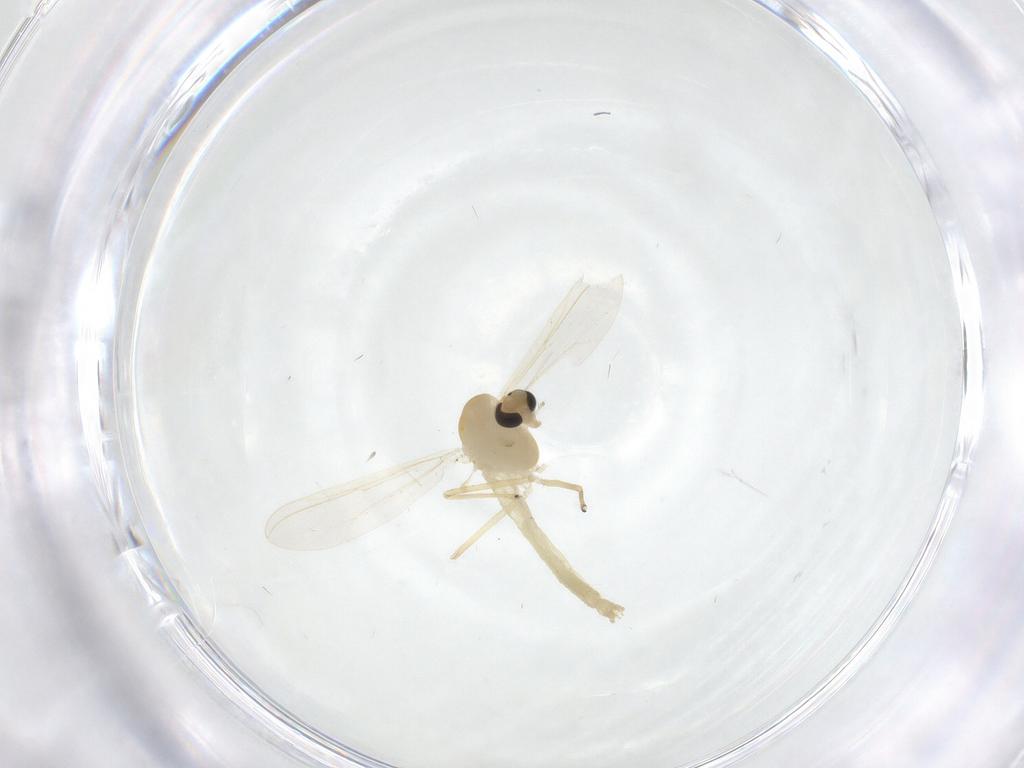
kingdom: Animalia
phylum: Arthropoda
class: Insecta
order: Diptera
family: Chironomidae
